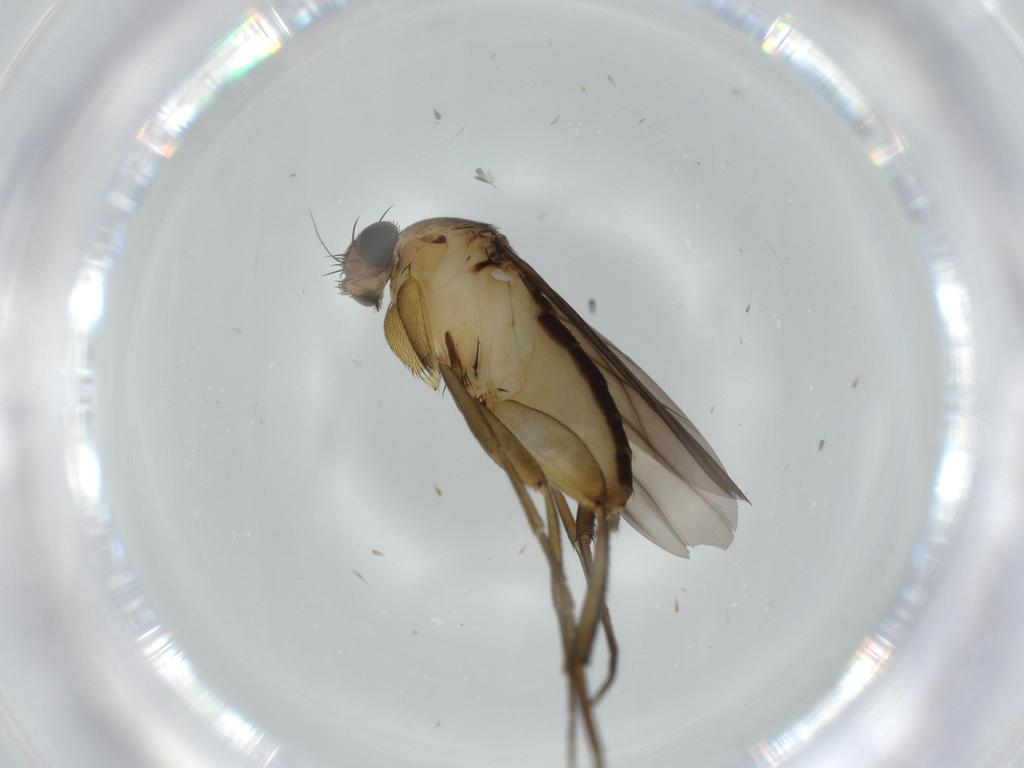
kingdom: Animalia
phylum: Arthropoda
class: Insecta
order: Diptera
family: Phoridae
